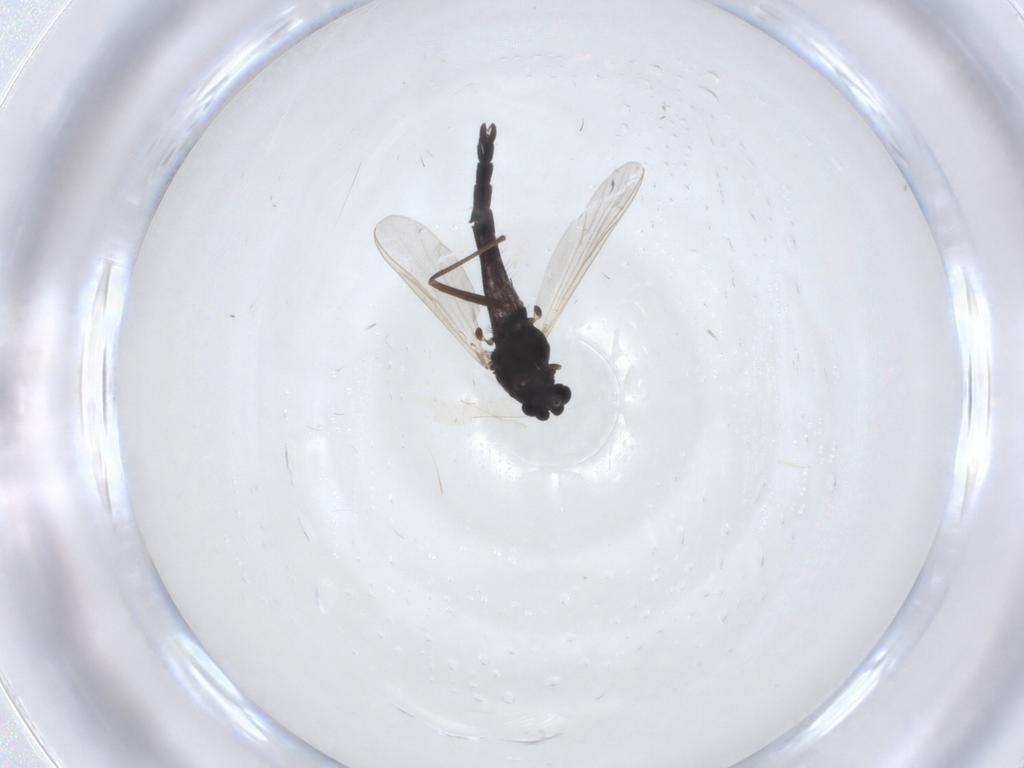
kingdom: Animalia
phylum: Arthropoda
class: Insecta
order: Diptera
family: Chironomidae
